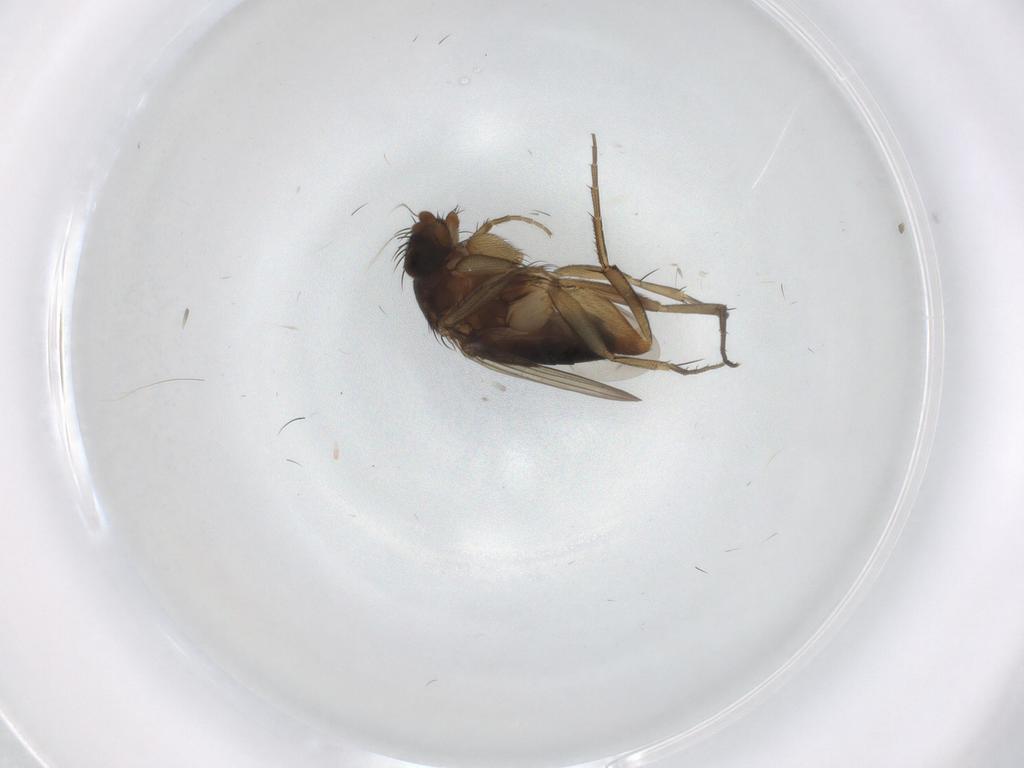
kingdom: Animalia
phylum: Arthropoda
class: Insecta
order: Diptera
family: Phoridae
